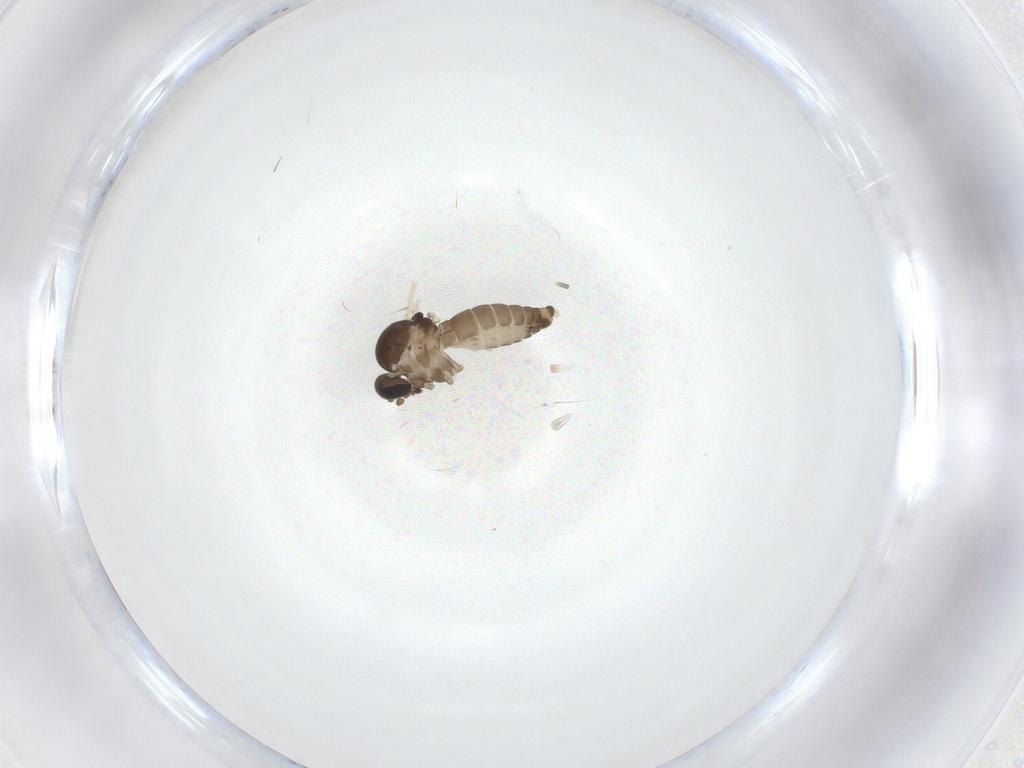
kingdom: Animalia
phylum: Arthropoda
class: Insecta
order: Diptera
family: Ceratopogonidae
